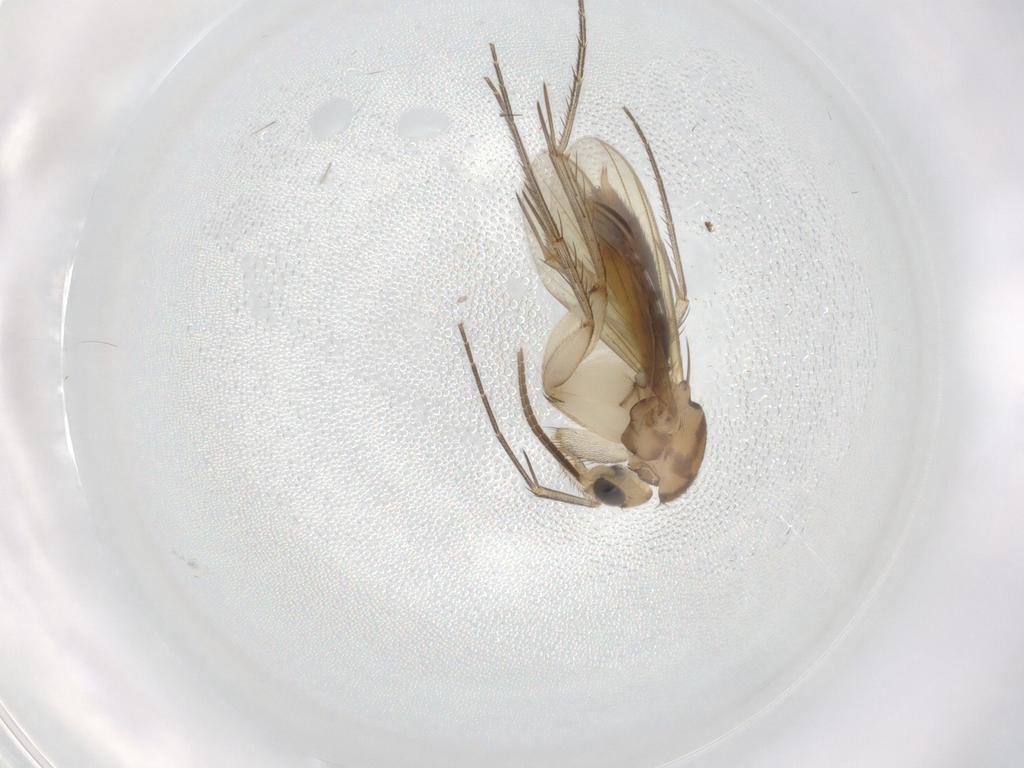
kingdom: Animalia
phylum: Arthropoda
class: Insecta
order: Diptera
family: Mycetophilidae
